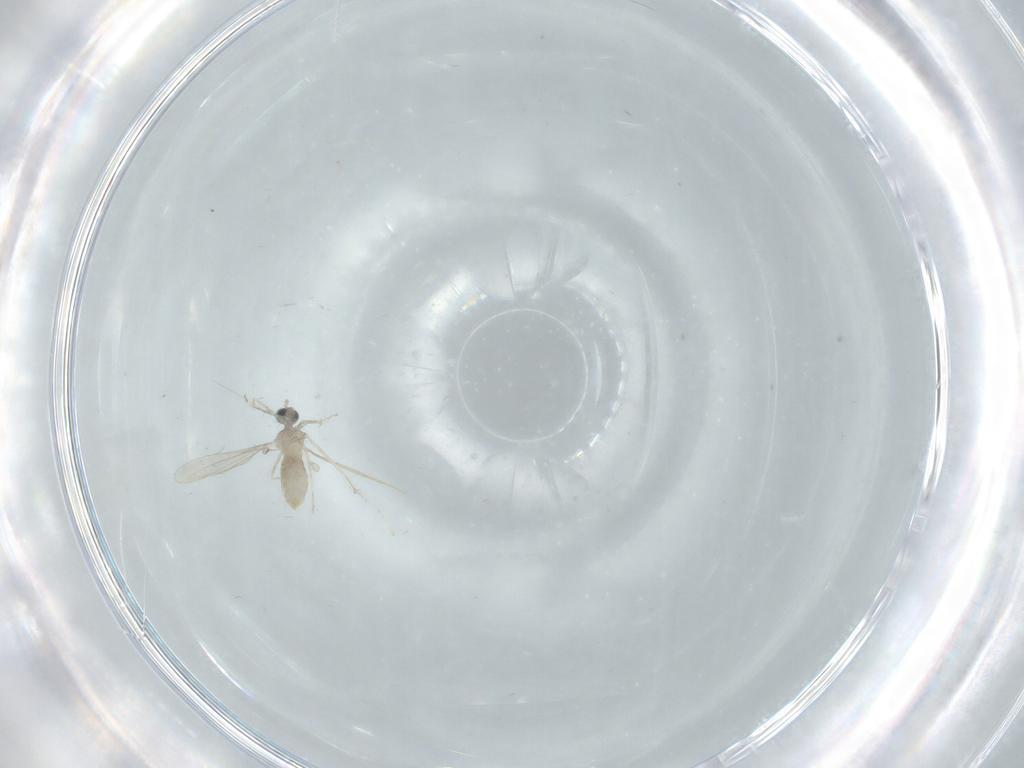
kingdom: Animalia
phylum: Arthropoda
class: Insecta
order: Diptera
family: Cecidomyiidae
